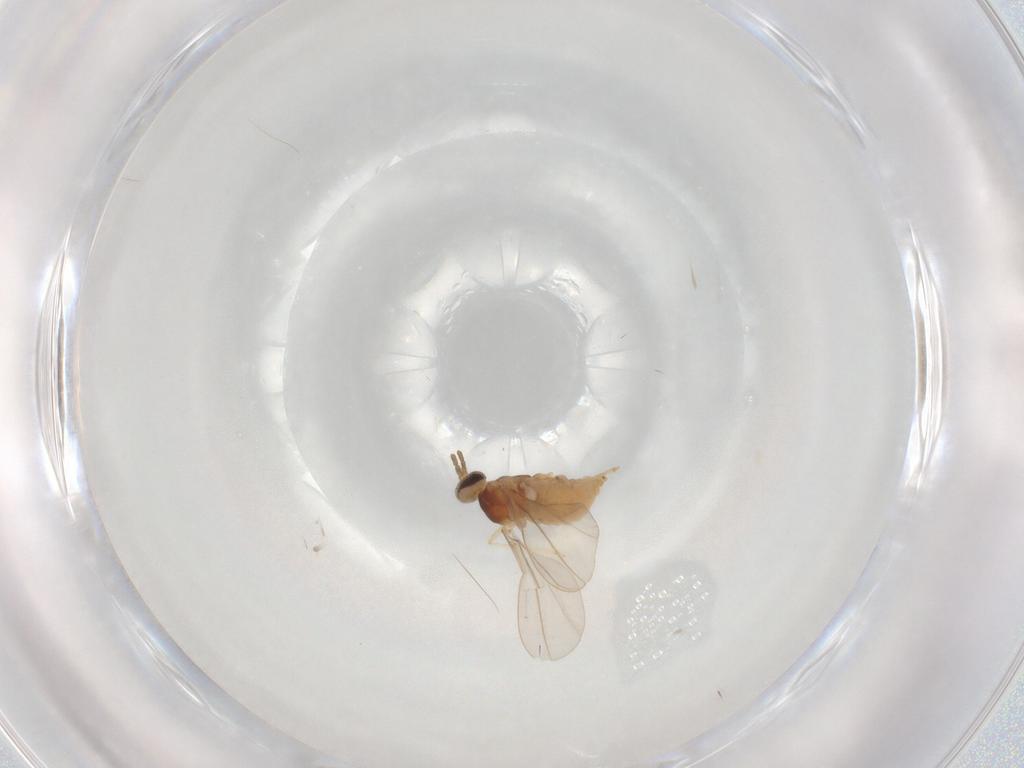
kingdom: Animalia
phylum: Arthropoda
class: Insecta
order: Diptera
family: Cecidomyiidae
